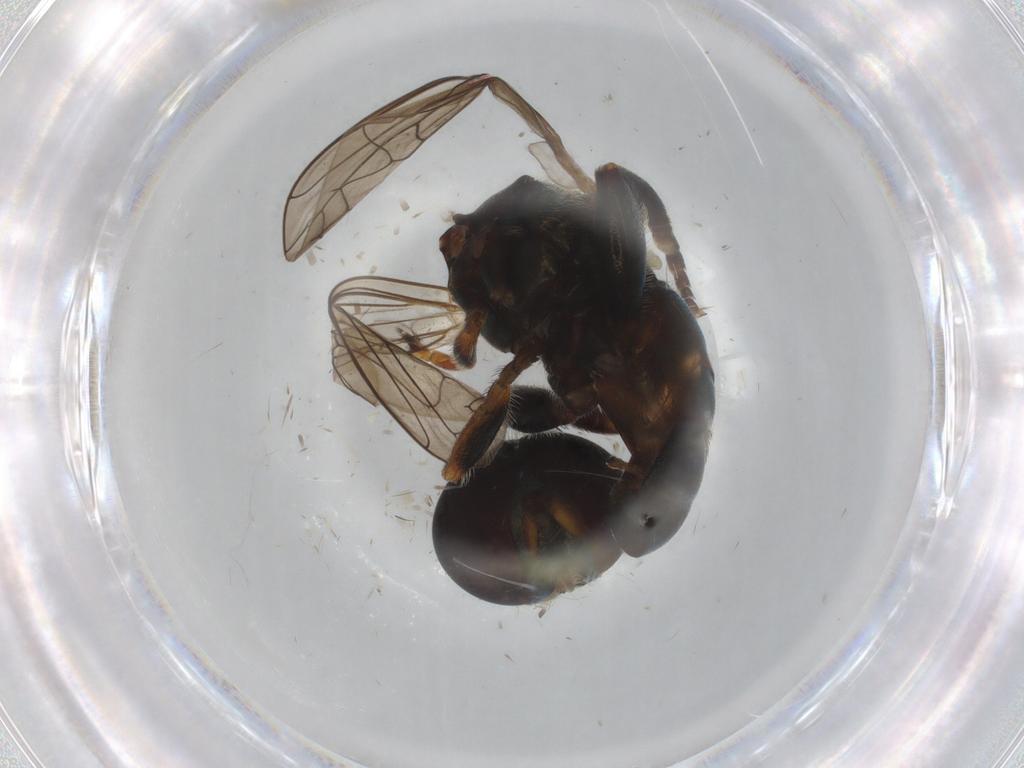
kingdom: Animalia
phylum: Arthropoda
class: Insecta
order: Diptera
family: Syrphidae
